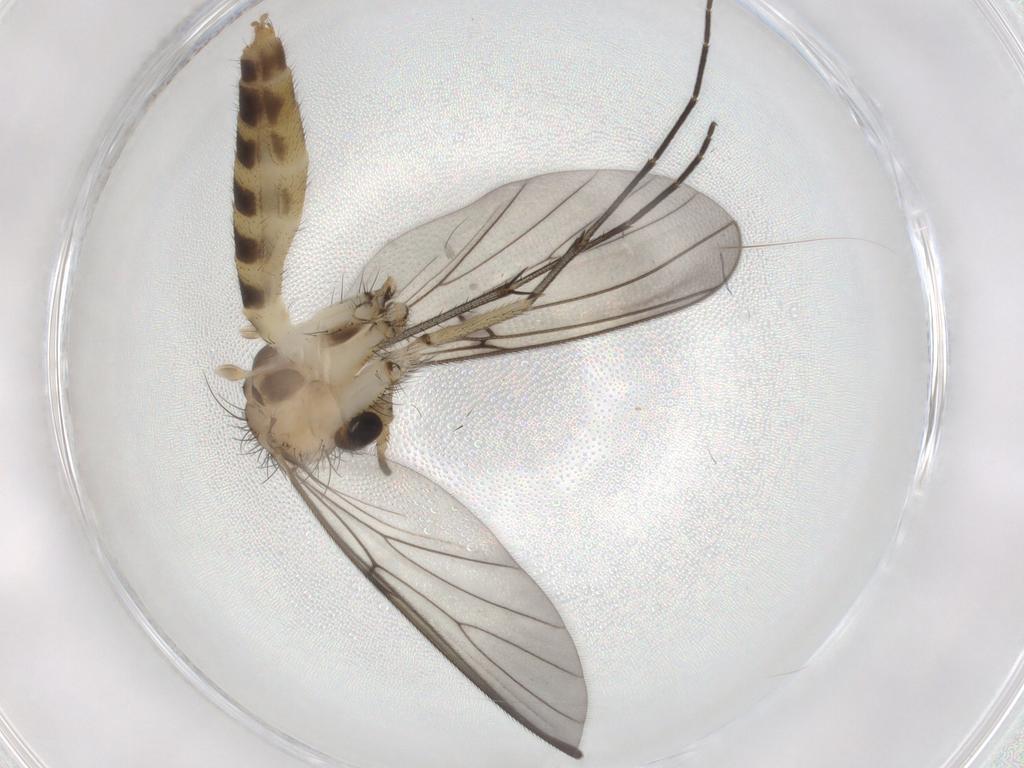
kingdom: Animalia
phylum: Arthropoda
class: Insecta
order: Diptera
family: Mycetophilidae
